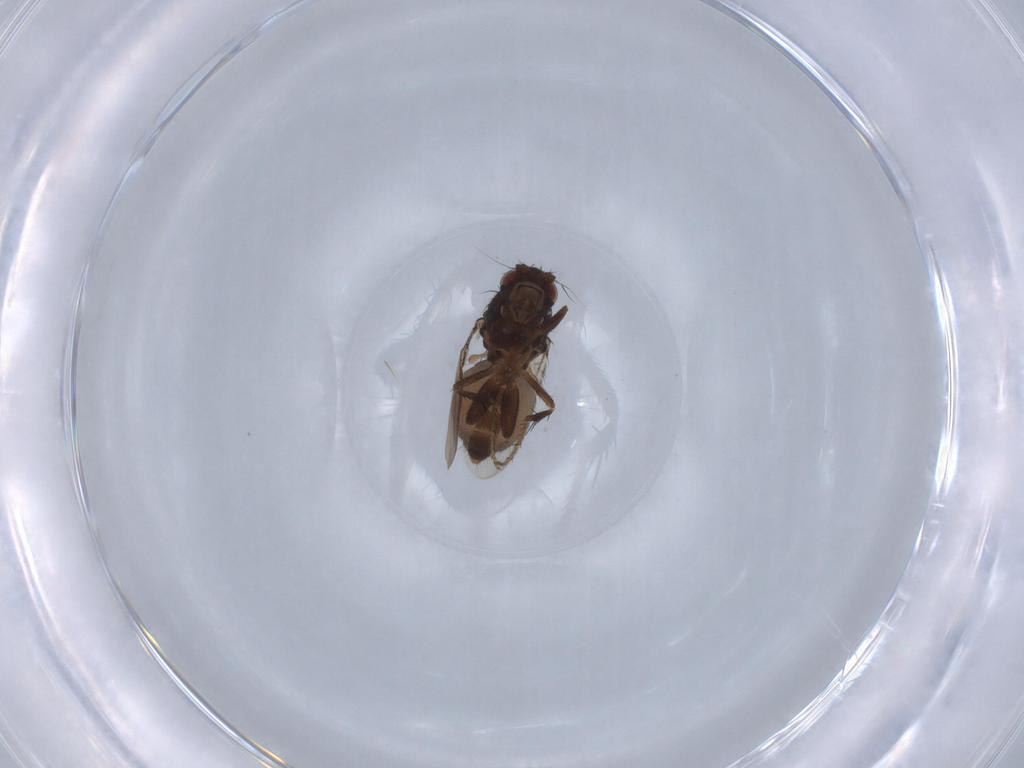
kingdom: Animalia
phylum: Arthropoda
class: Insecta
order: Diptera
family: Sphaeroceridae
